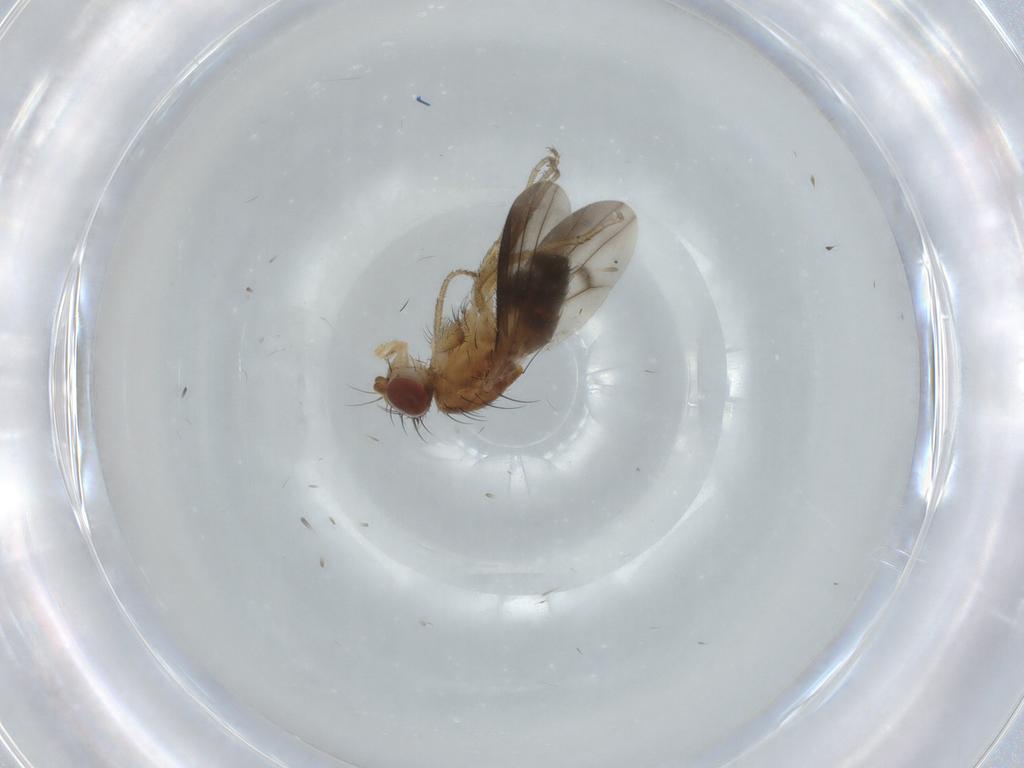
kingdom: Animalia
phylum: Arthropoda
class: Insecta
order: Diptera
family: Heleomyzidae
